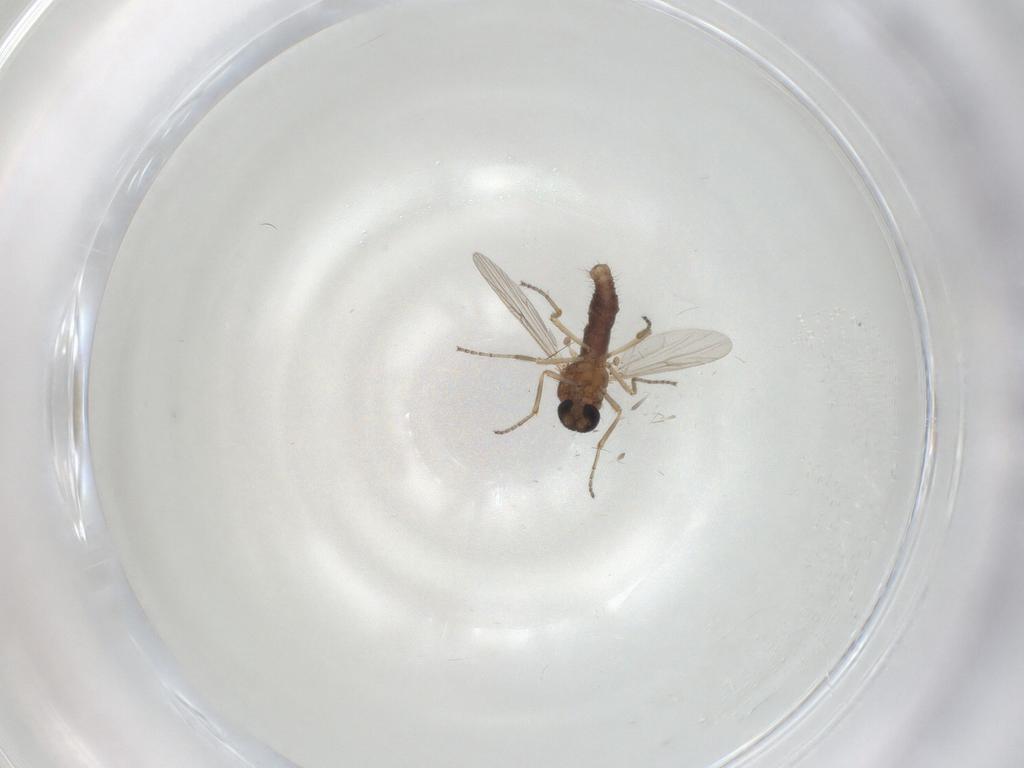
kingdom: Animalia
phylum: Arthropoda
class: Insecta
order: Diptera
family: Ceratopogonidae
